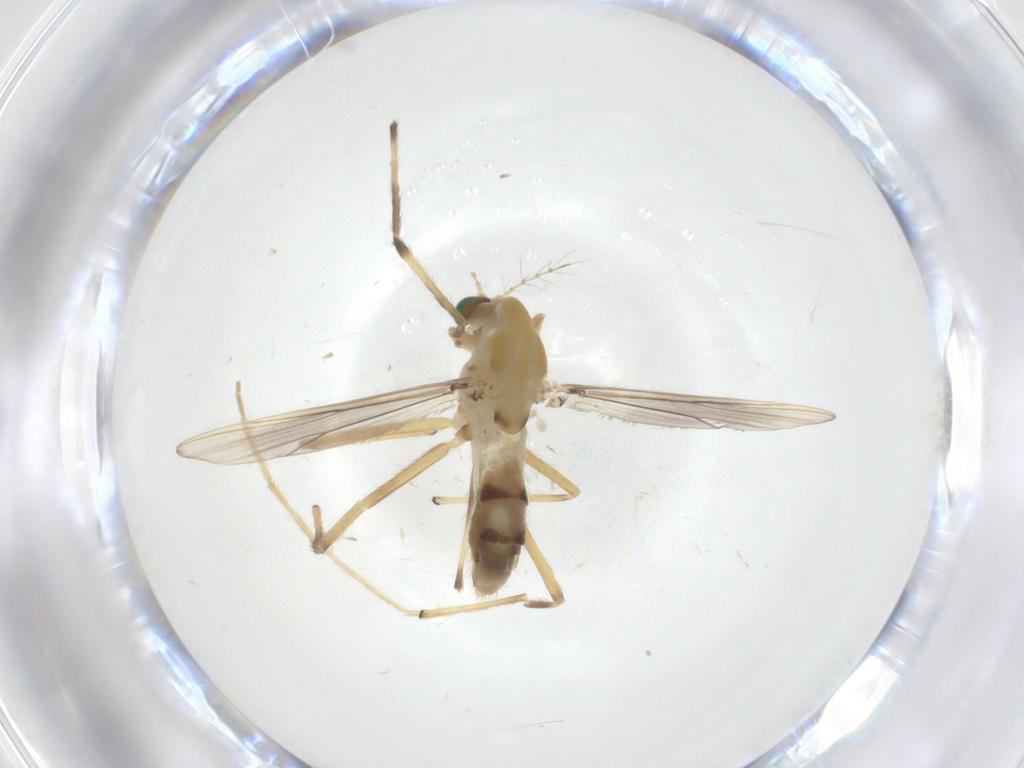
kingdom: Animalia
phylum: Arthropoda
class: Insecta
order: Diptera
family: Chironomidae
